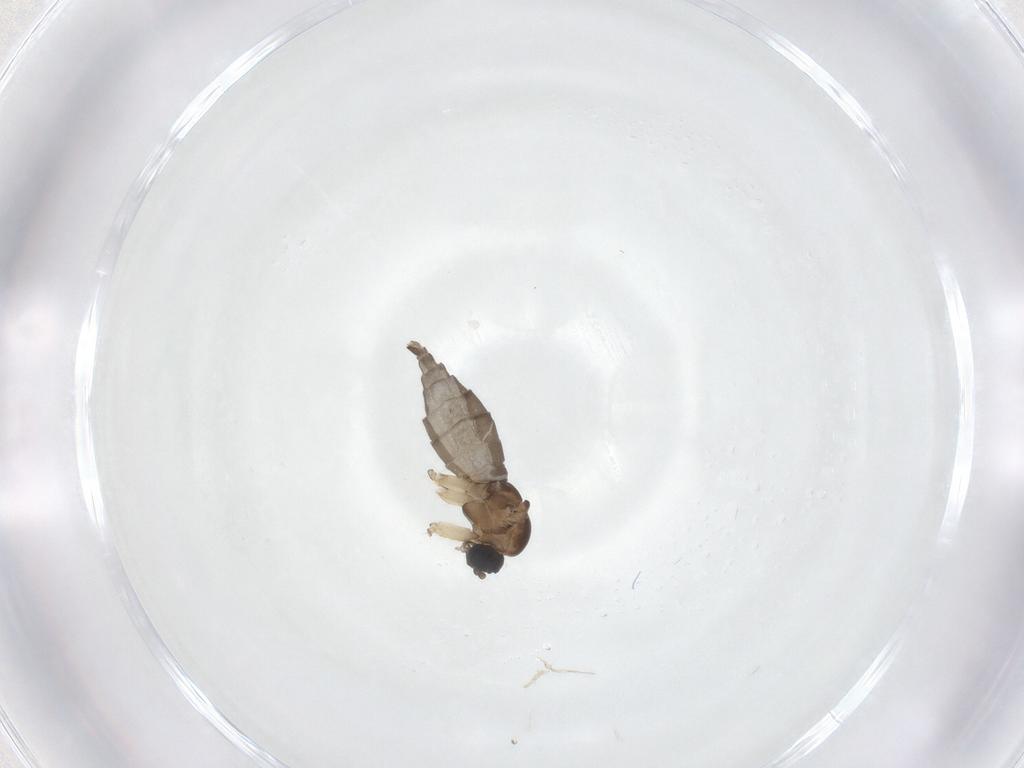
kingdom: Animalia
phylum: Arthropoda
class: Insecta
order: Diptera
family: Sciaridae
